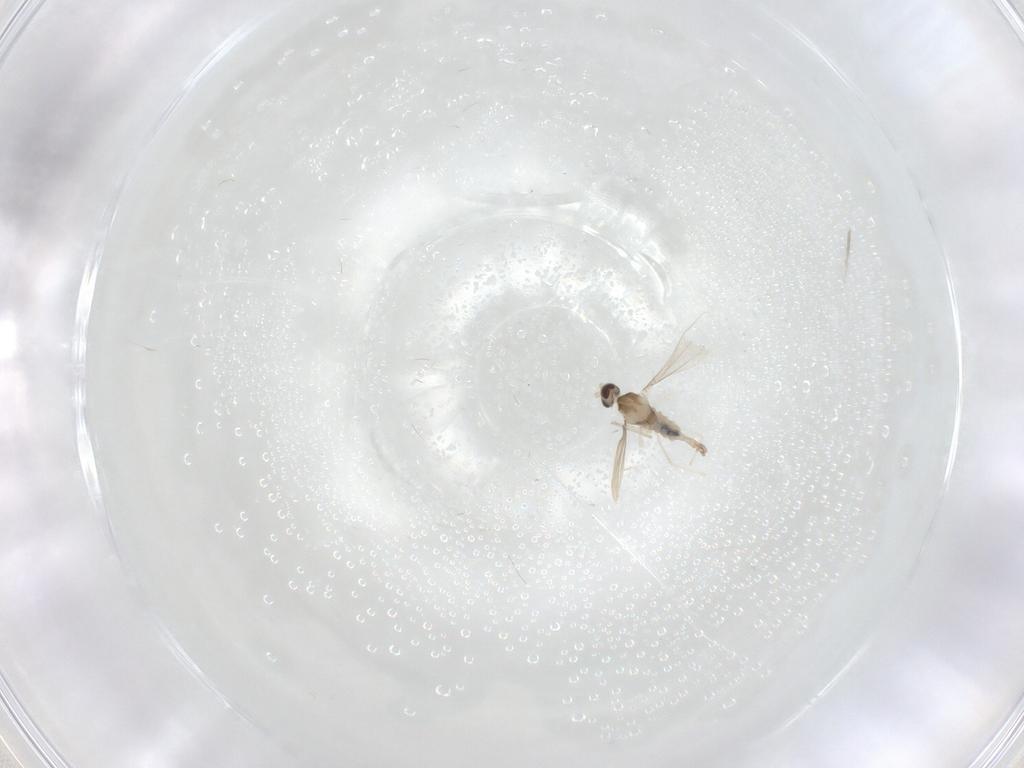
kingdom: Animalia
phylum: Arthropoda
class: Insecta
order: Diptera
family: Cecidomyiidae
